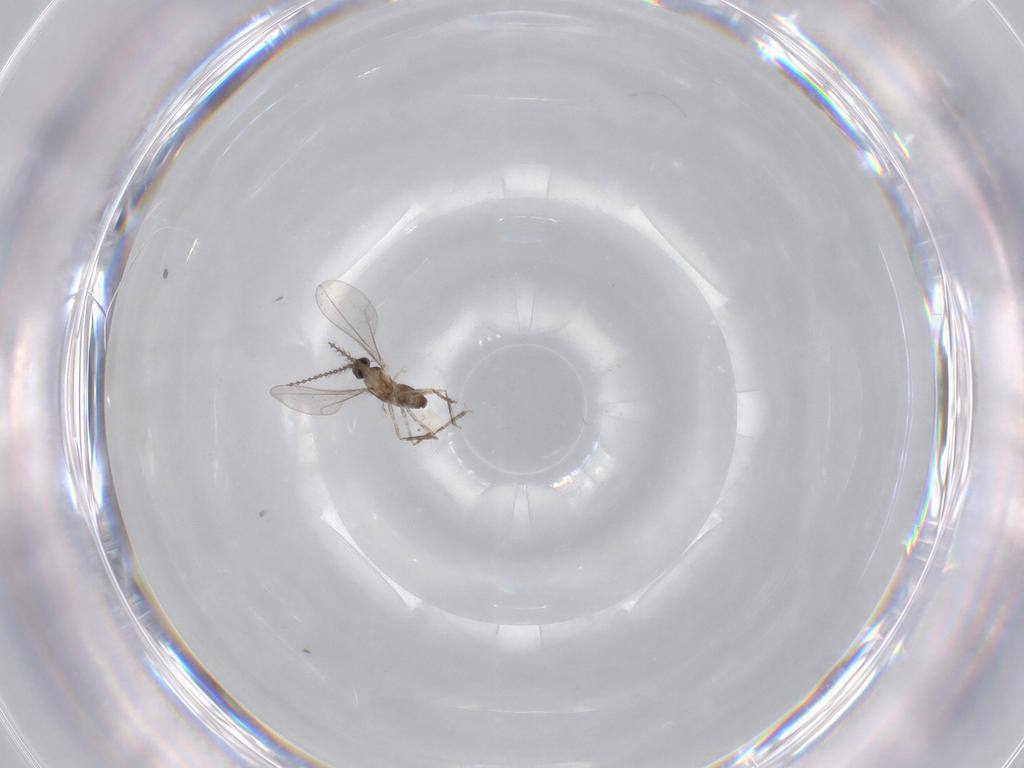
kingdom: Animalia
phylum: Arthropoda
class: Insecta
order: Diptera
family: Cecidomyiidae
